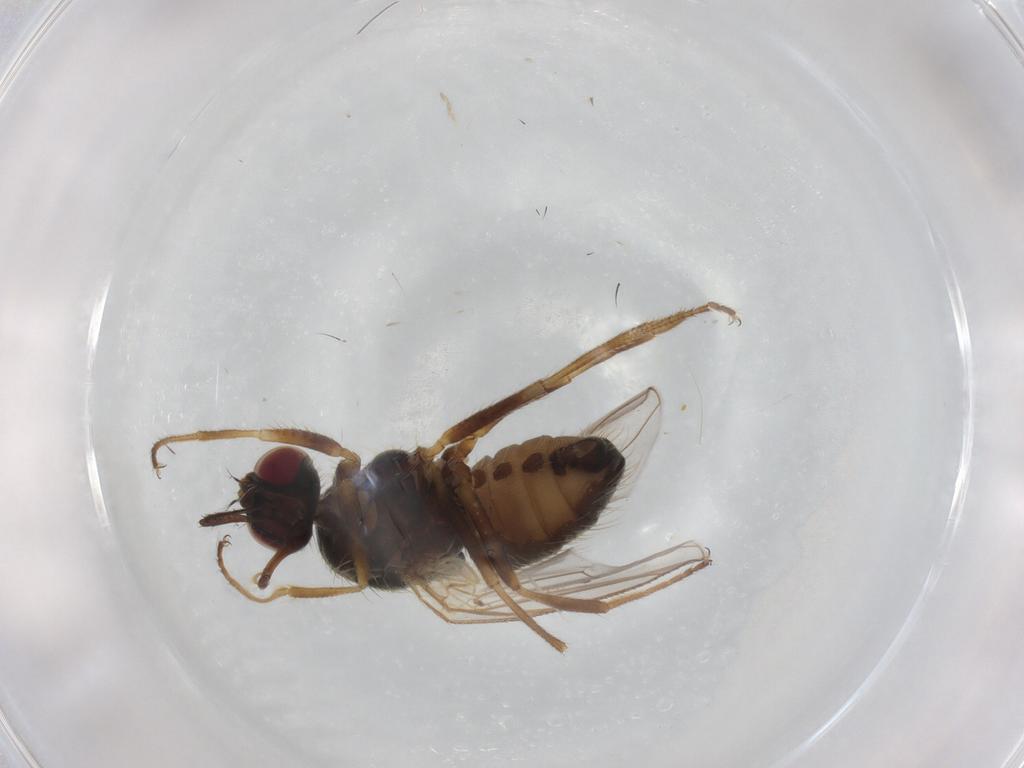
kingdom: Animalia
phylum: Arthropoda
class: Insecta
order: Diptera
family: Muscidae
